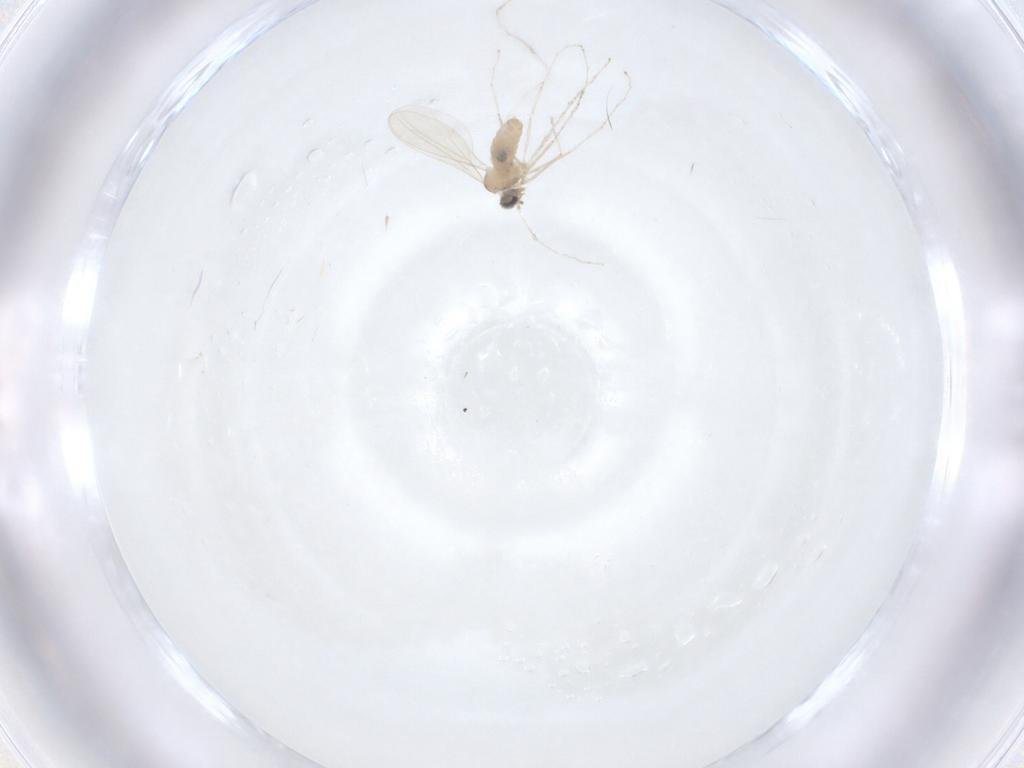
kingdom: Animalia
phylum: Arthropoda
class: Insecta
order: Diptera
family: Cecidomyiidae
